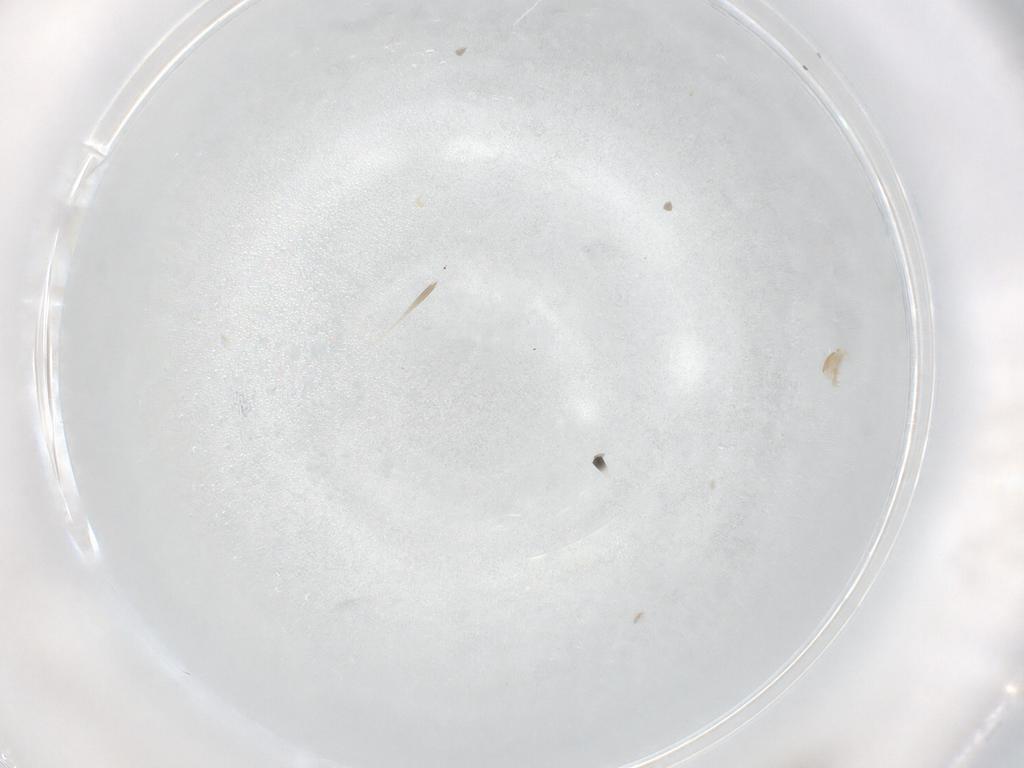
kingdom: Animalia
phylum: Arthropoda
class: Arachnida
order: Mesostigmata
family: Halolaelapidae
